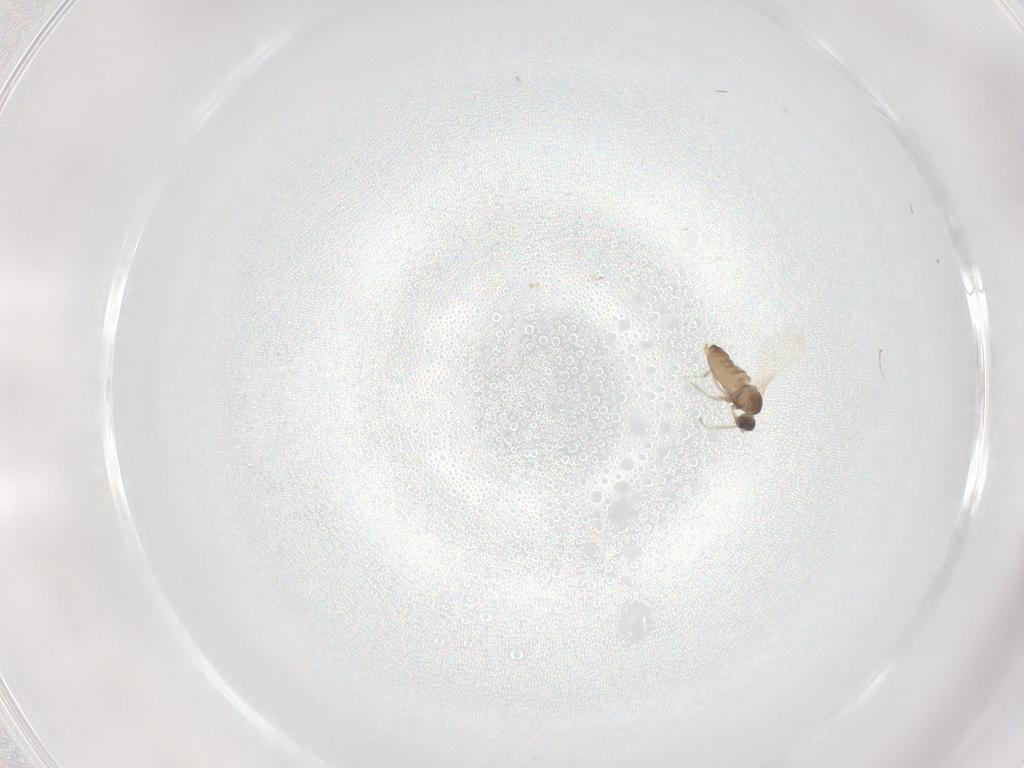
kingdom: Animalia
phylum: Arthropoda
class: Insecta
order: Diptera
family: Cecidomyiidae
